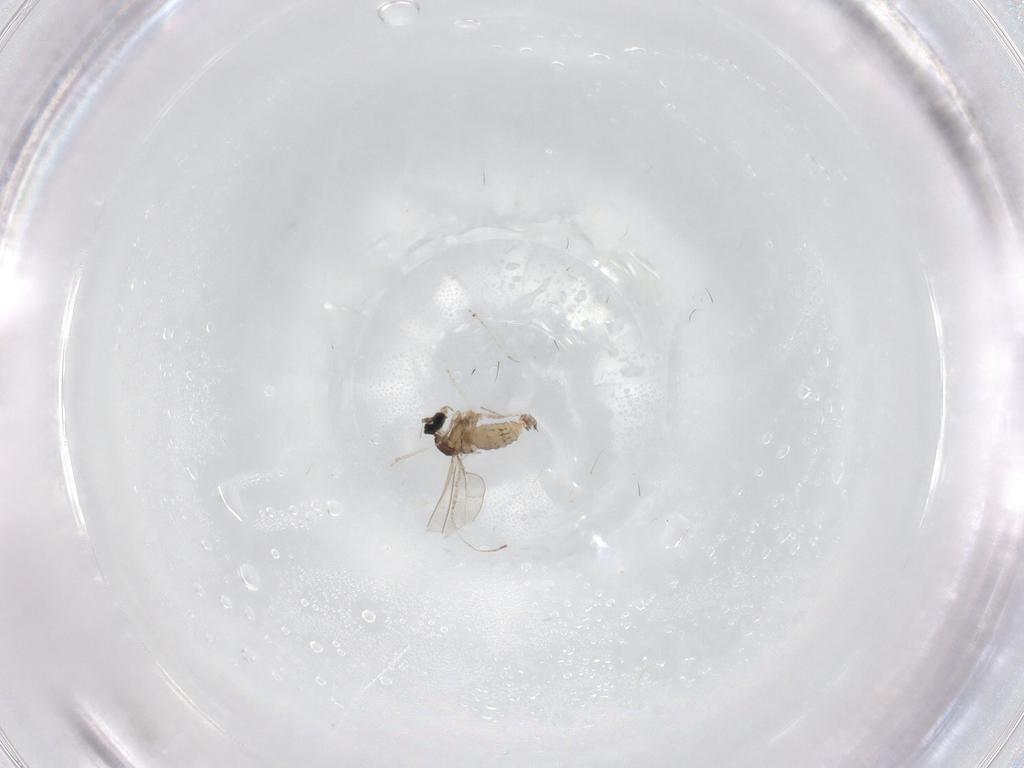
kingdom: Animalia
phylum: Arthropoda
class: Insecta
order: Diptera
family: Cecidomyiidae
